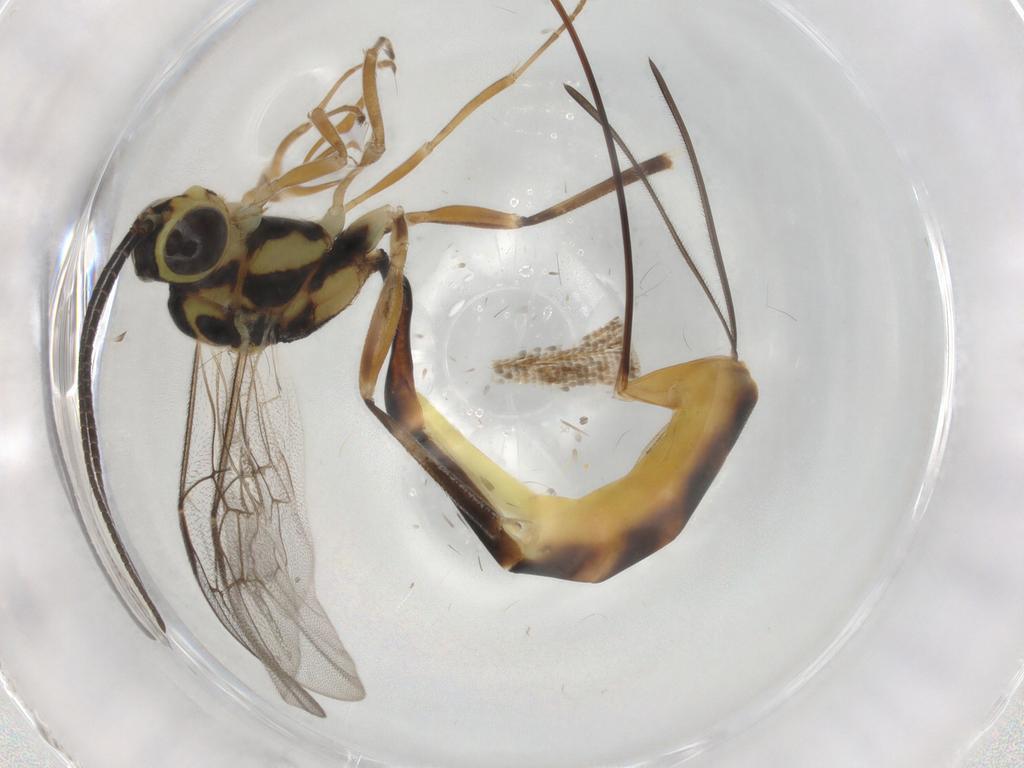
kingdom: Animalia
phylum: Arthropoda
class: Insecta
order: Hymenoptera
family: Ichneumonidae
